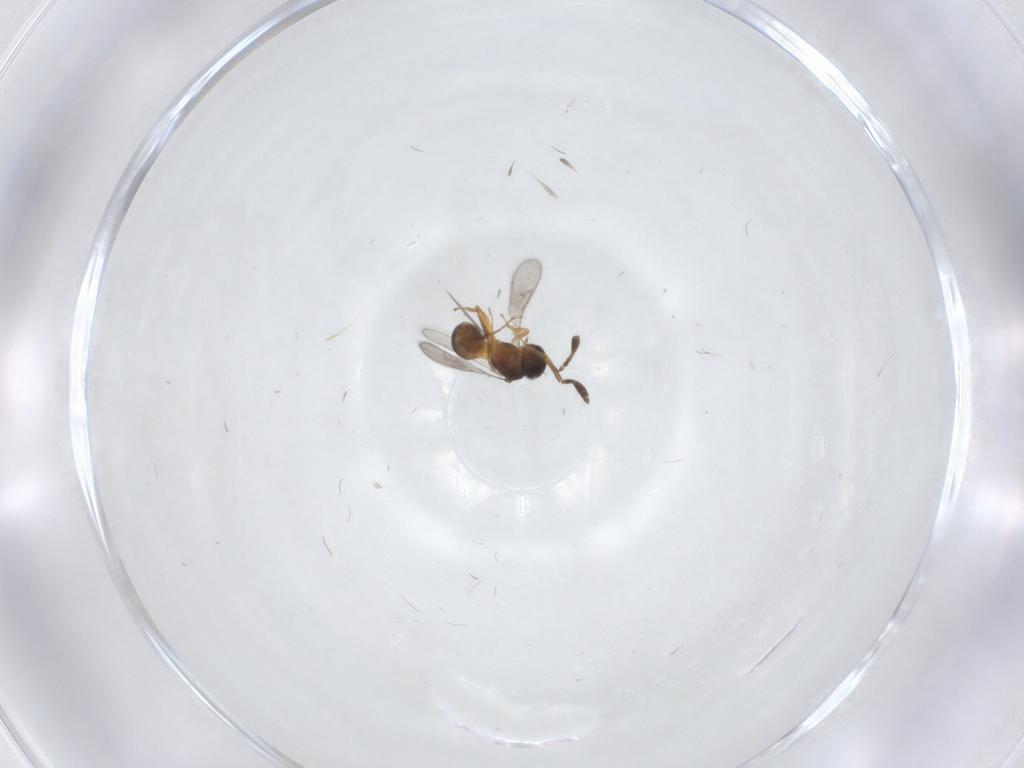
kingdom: Animalia
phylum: Arthropoda
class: Insecta
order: Hymenoptera
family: Scelionidae
